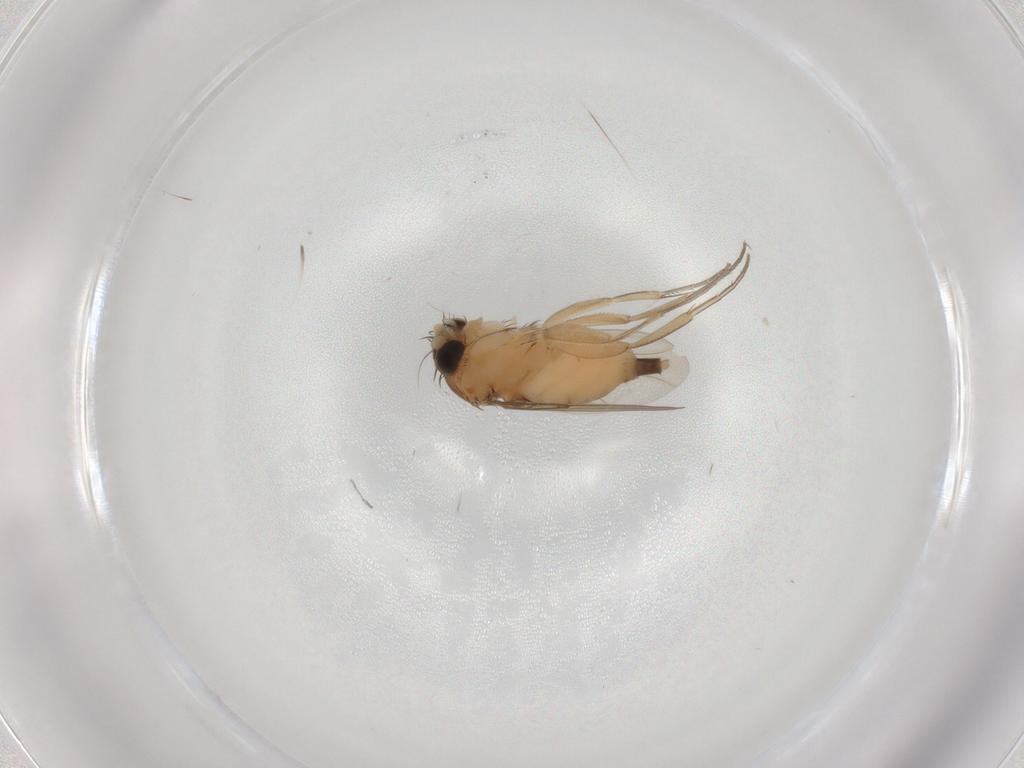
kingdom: Animalia
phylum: Arthropoda
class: Insecta
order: Diptera
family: Phoridae
